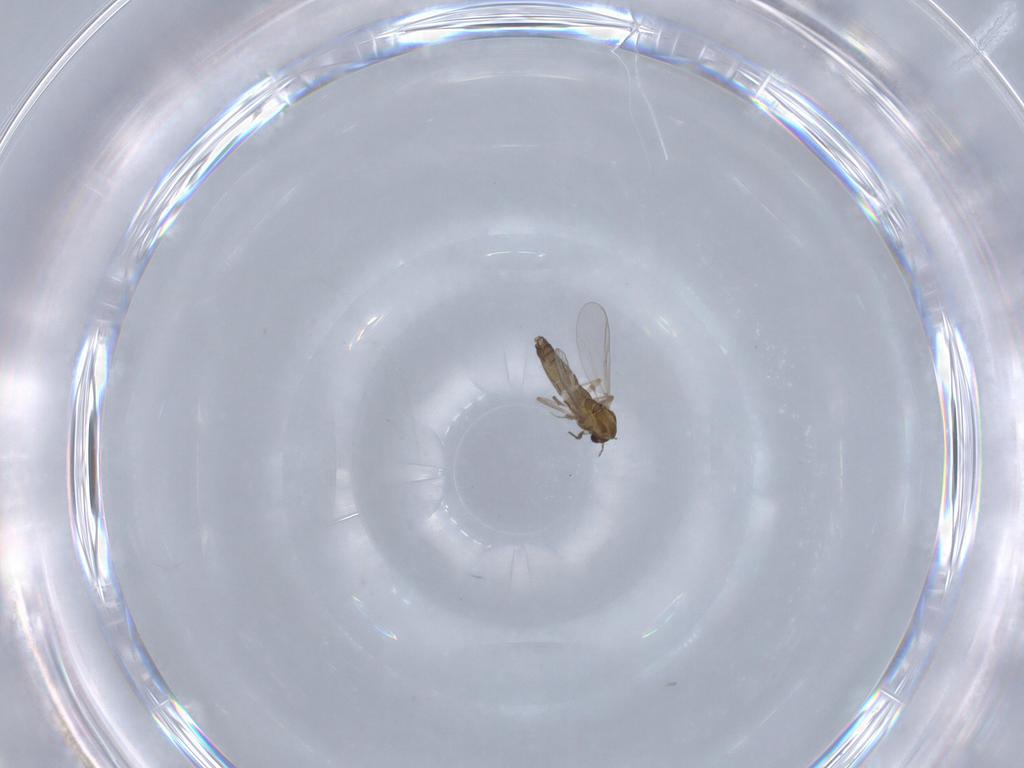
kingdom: Animalia
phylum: Arthropoda
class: Insecta
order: Diptera
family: Chironomidae
